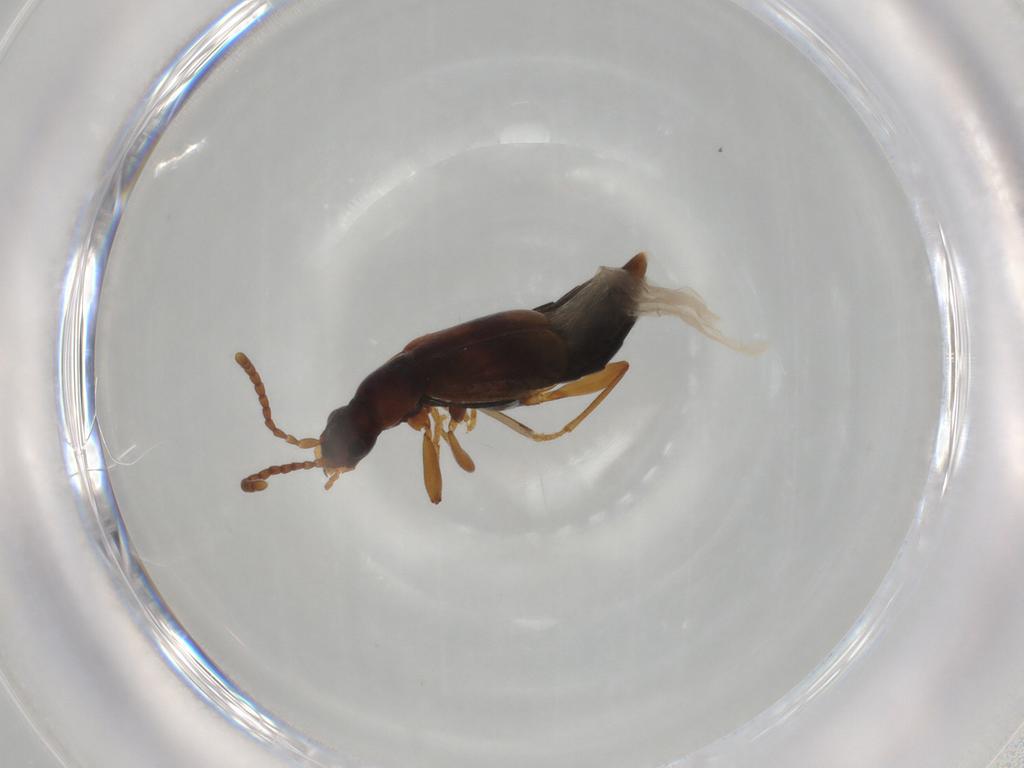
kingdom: Animalia
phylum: Arthropoda
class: Insecta
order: Coleoptera
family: Staphylinidae
